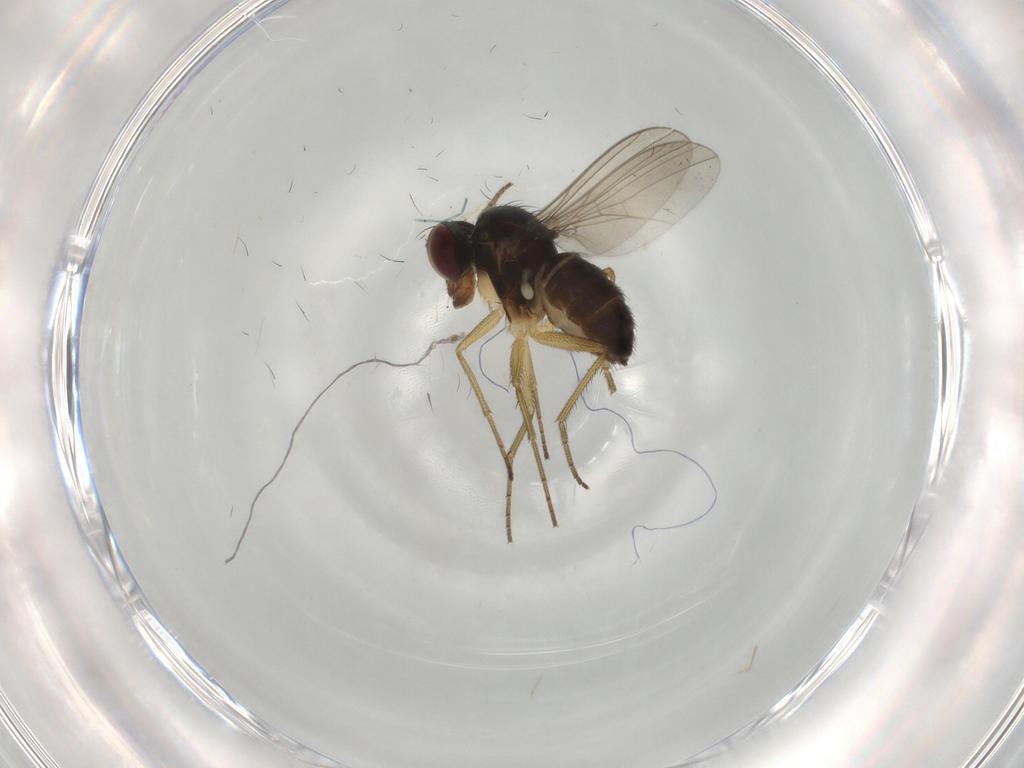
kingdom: Animalia
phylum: Arthropoda
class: Insecta
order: Diptera
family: Dolichopodidae
